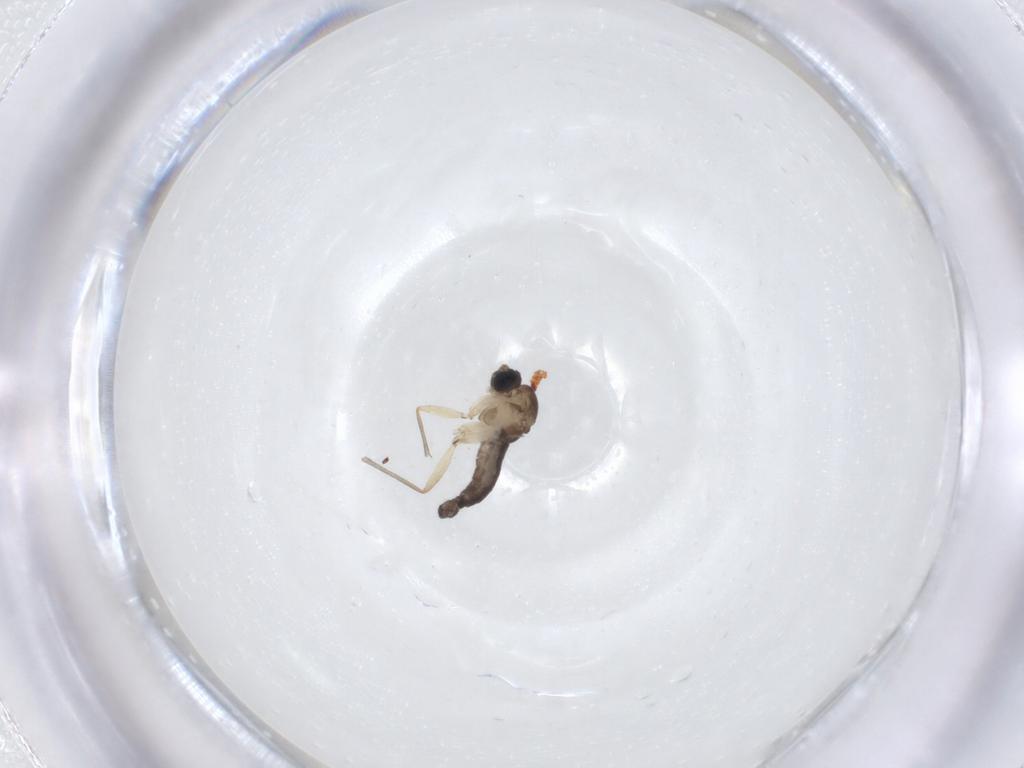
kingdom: Animalia
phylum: Arthropoda
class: Insecta
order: Diptera
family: Sciaridae
